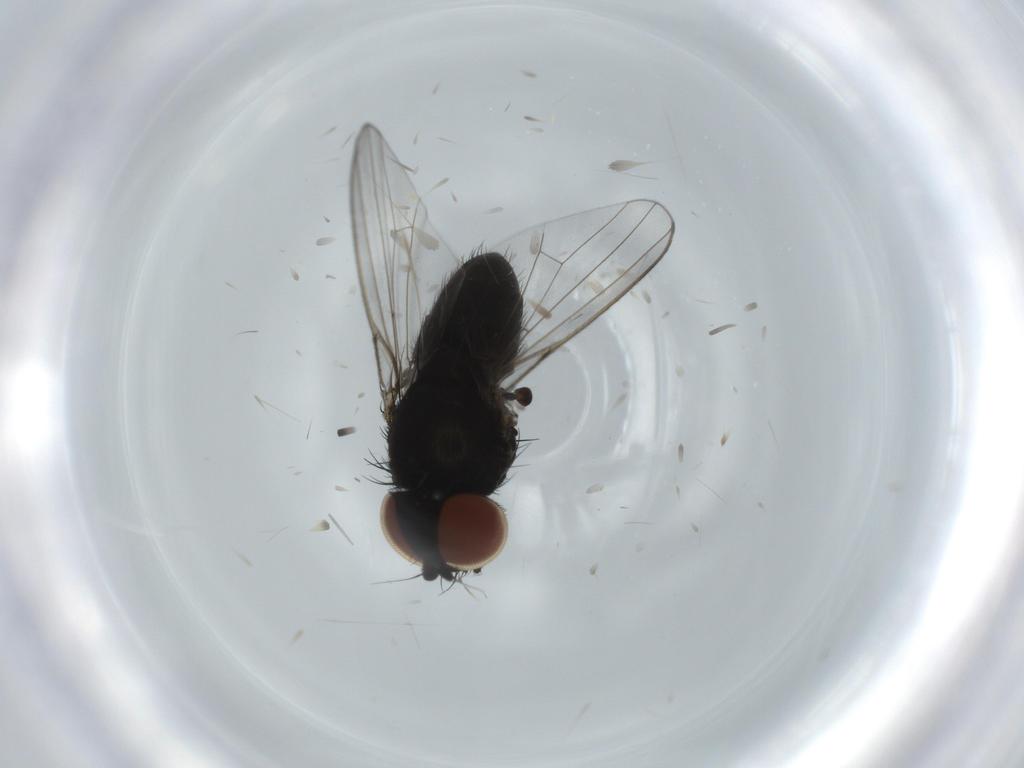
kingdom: Animalia
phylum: Arthropoda
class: Insecta
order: Diptera
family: Milichiidae
